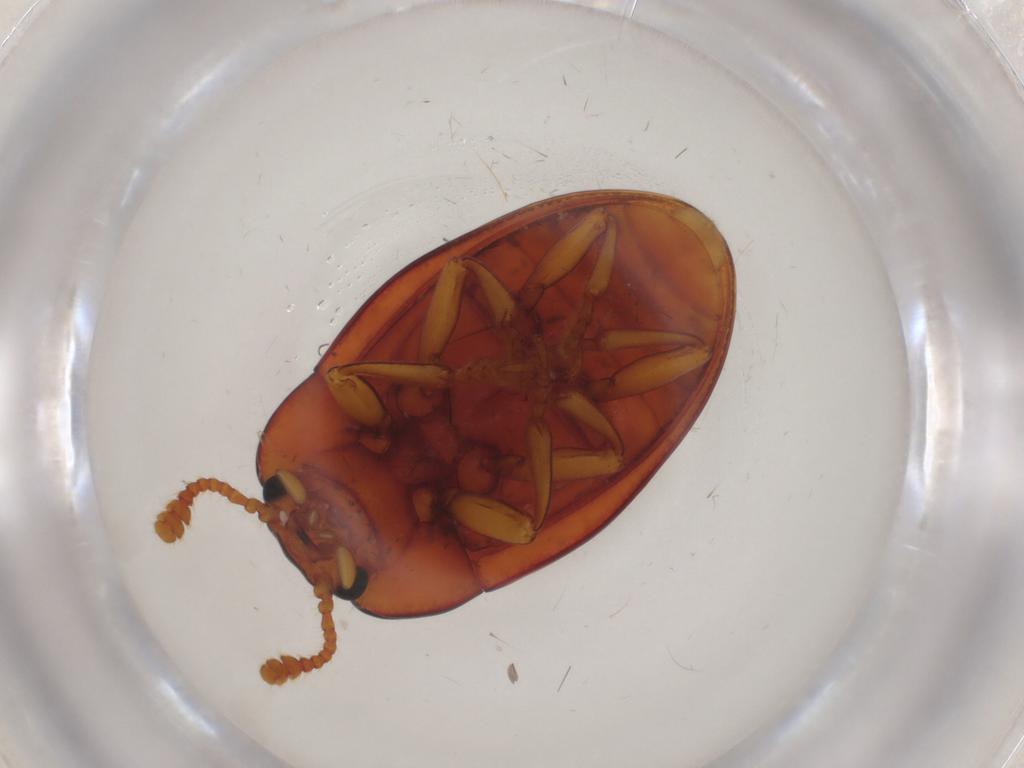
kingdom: Animalia
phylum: Arthropoda
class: Insecta
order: Coleoptera
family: Erotylidae
